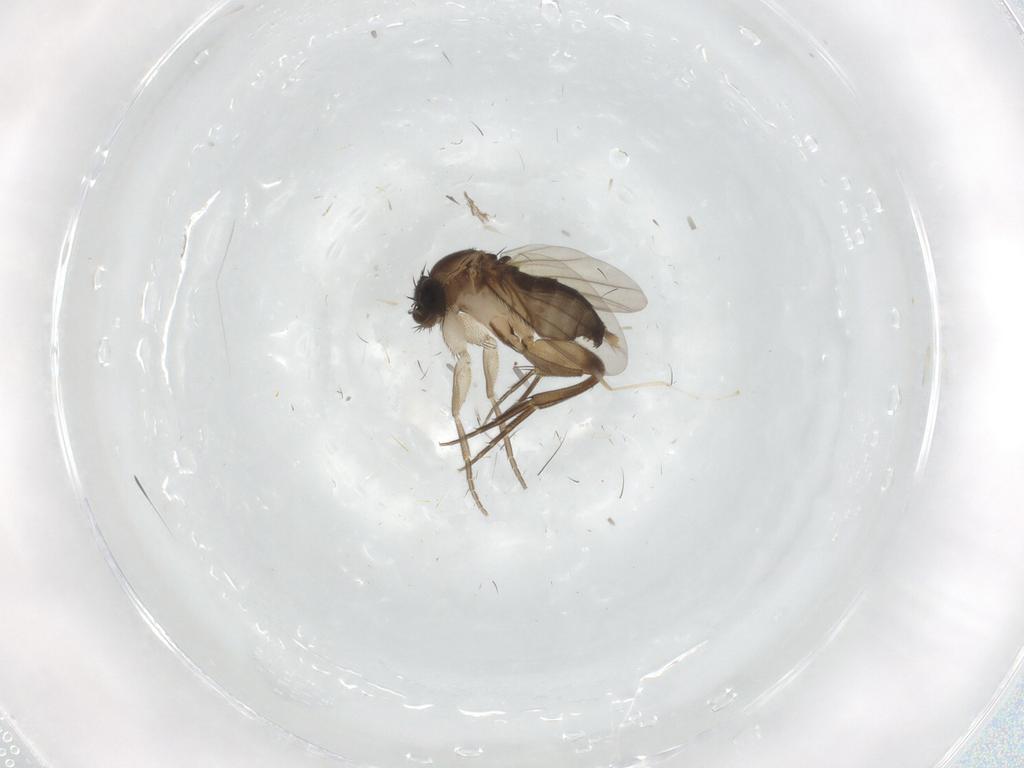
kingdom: Animalia
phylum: Arthropoda
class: Insecta
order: Diptera
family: Phoridae
